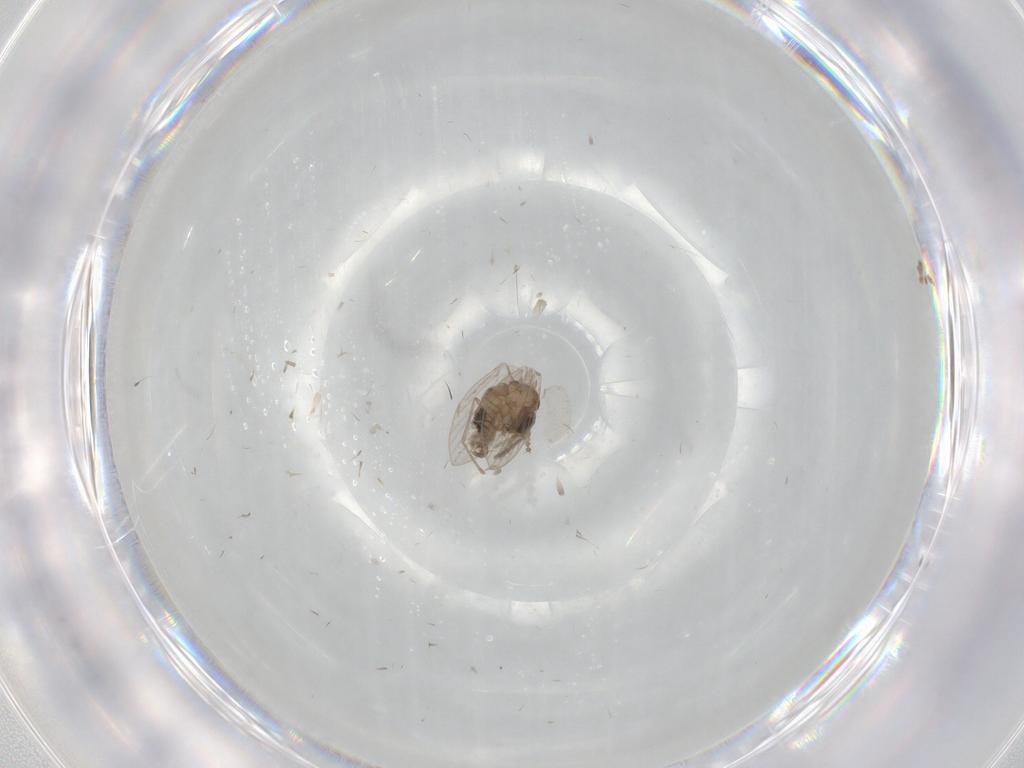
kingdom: Animalia
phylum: Arthropoda
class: Insecta
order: Diptera
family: Psychodidae
